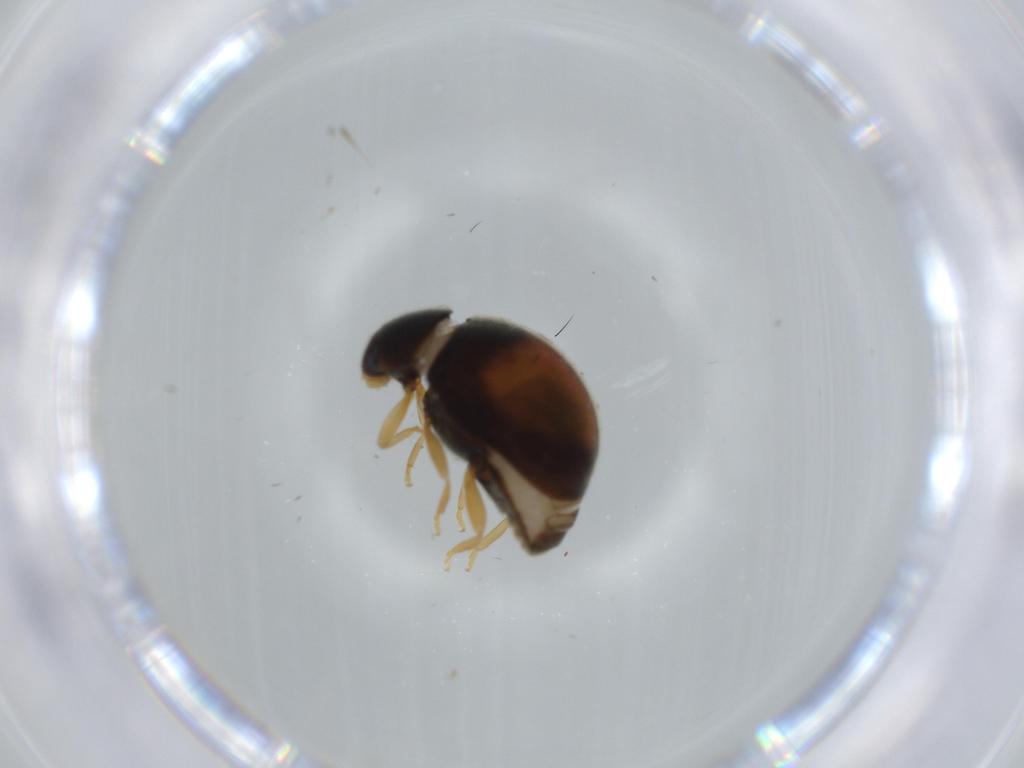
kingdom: Animalia
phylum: Arthropoda
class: Insecta
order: Coleoptera
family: Coccinellidae
